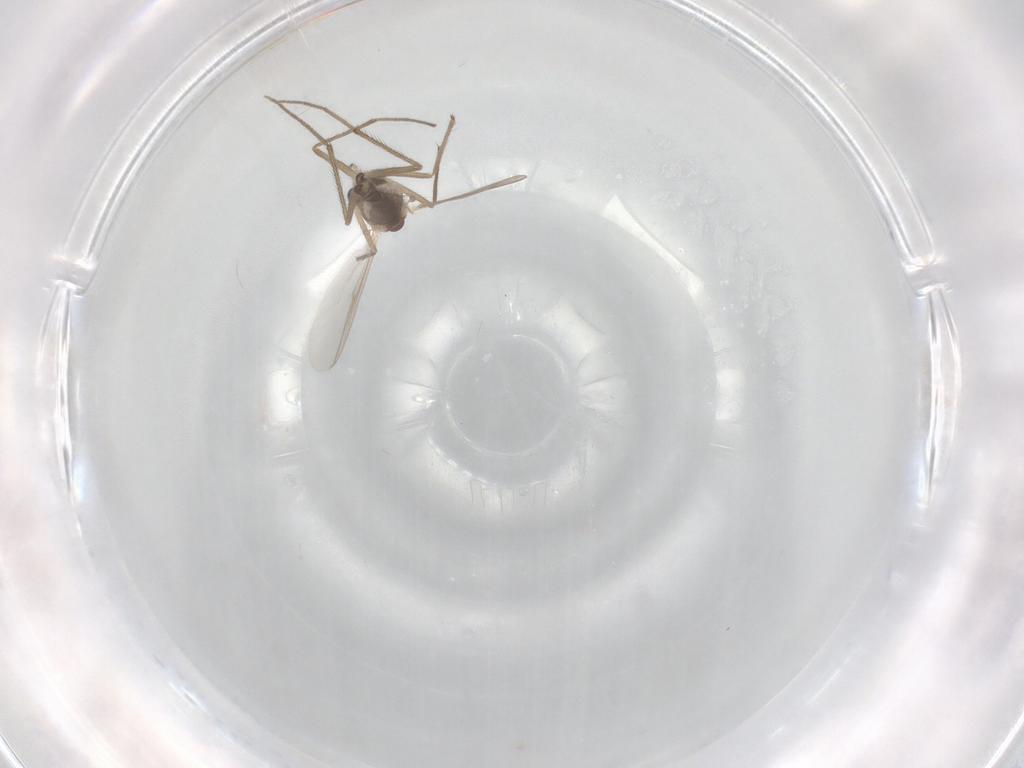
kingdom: Animalia
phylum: Arthropoda
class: Insecta
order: Diptera
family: Chironomidae
